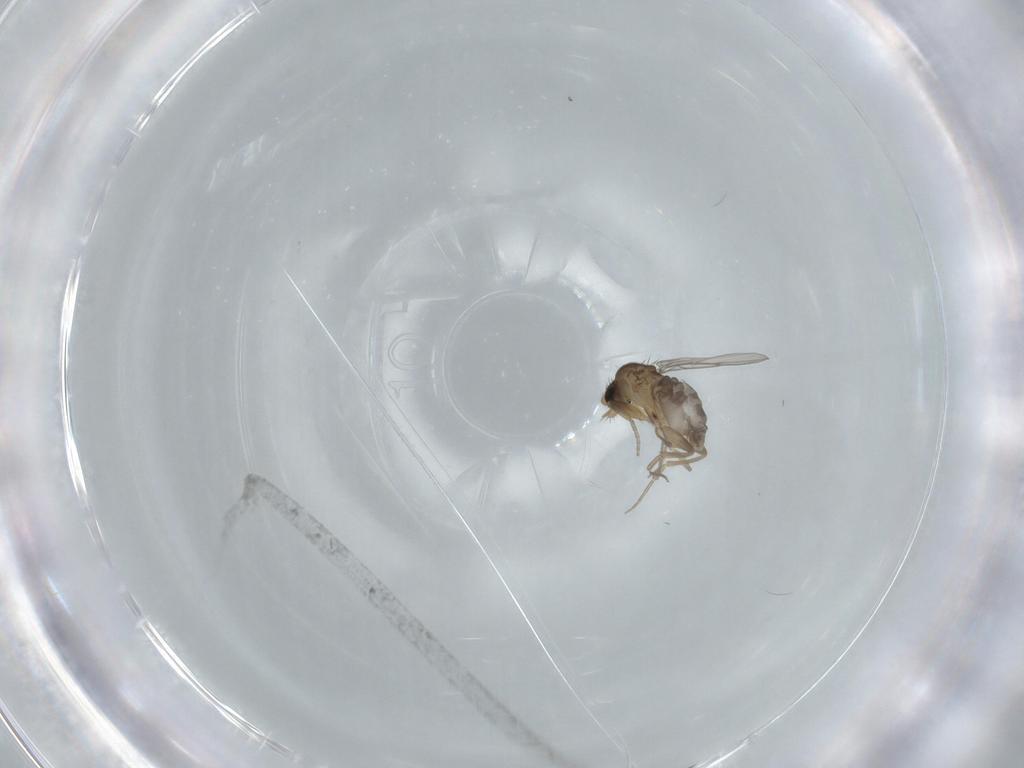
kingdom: Animalia
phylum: Arthropoda
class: Insecta
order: Diptera
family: Phoridae
